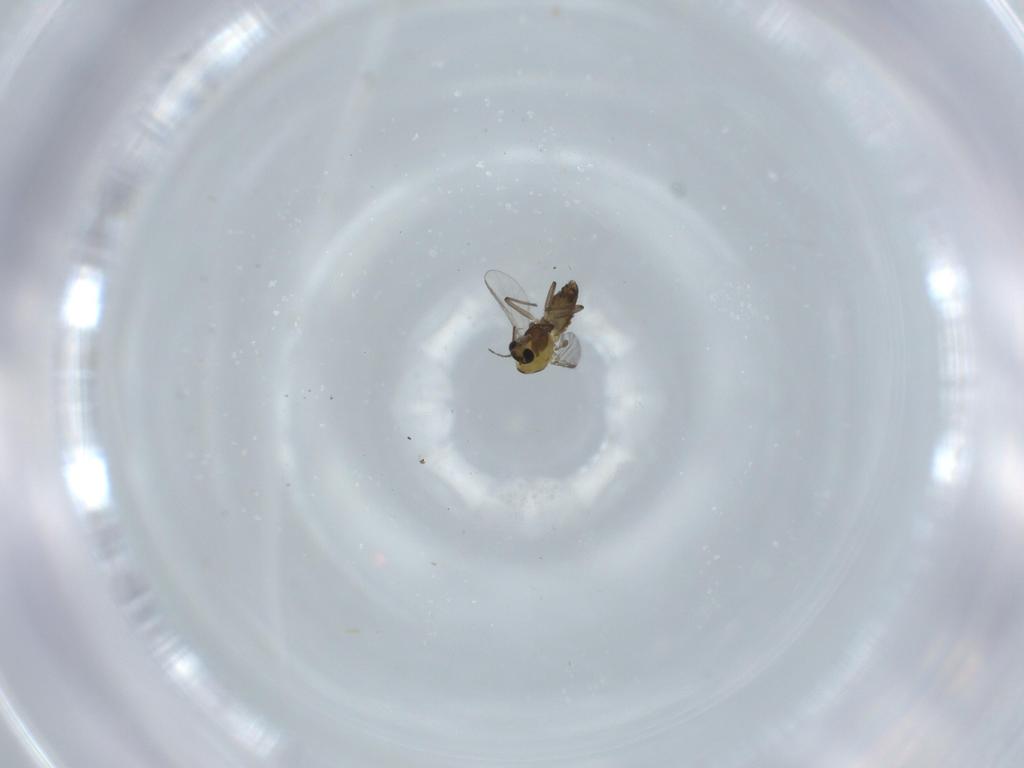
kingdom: Animalia
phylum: Arthropoda
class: Insecta
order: Diptera
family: Chironomidae
